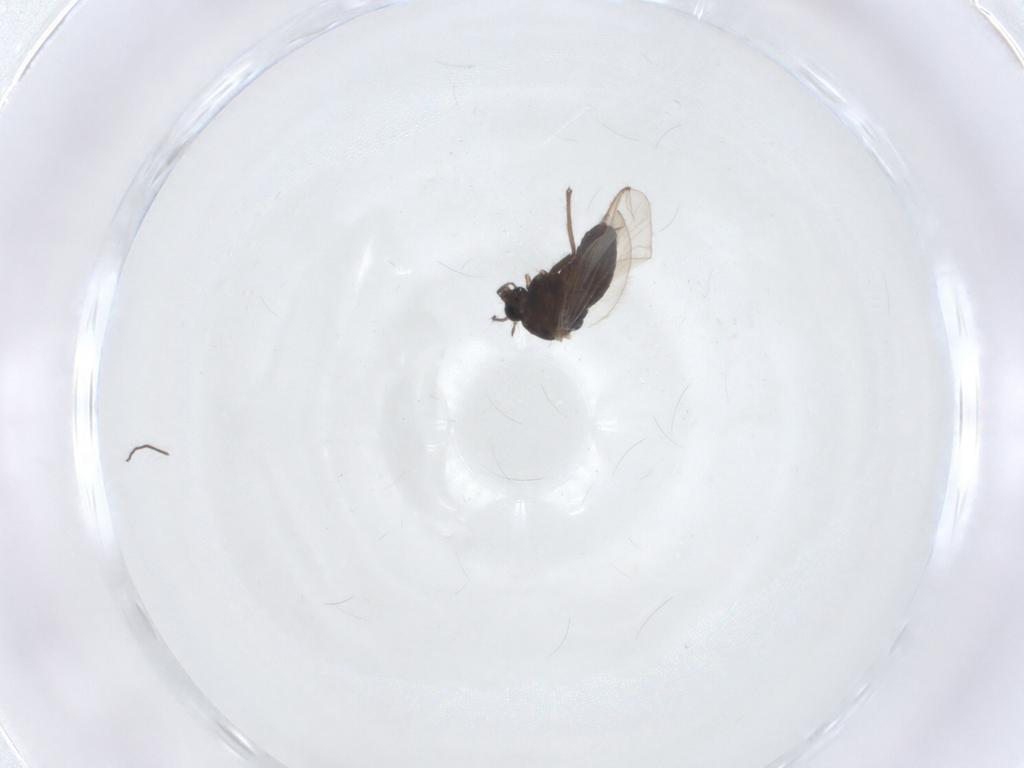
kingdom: Animalia
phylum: Arthropoda
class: Insecta
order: Diptera
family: Chironomidae
